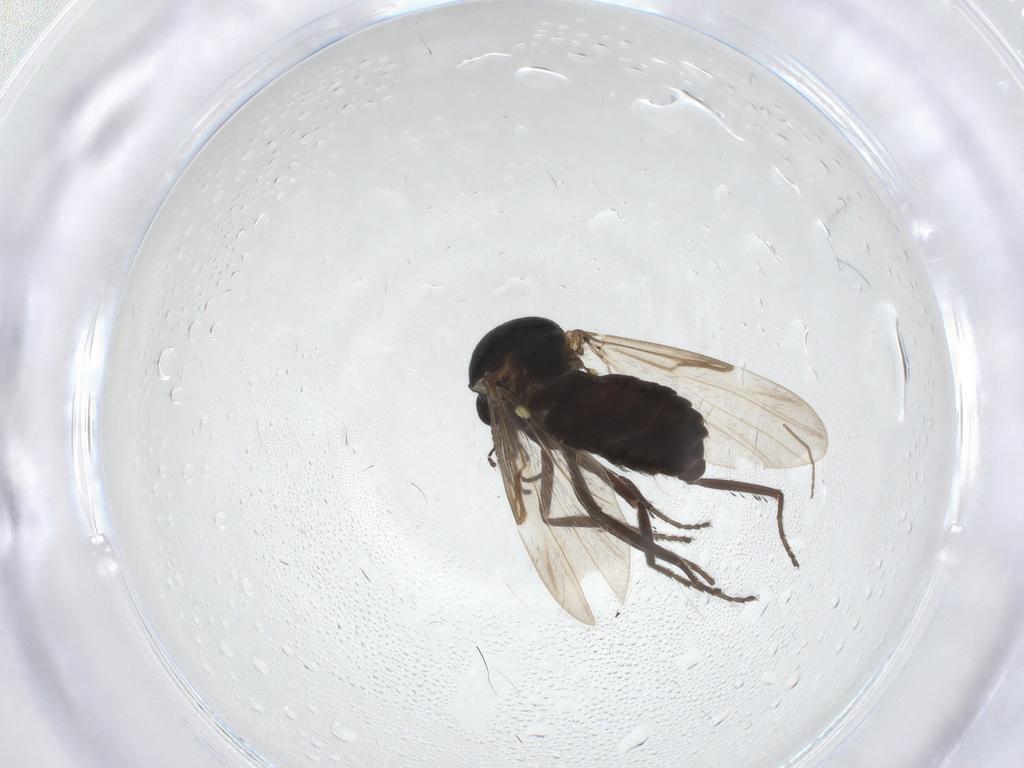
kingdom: Animalia
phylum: Arthropoda
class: Insecta
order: Diptera
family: Ceratopogonidae
